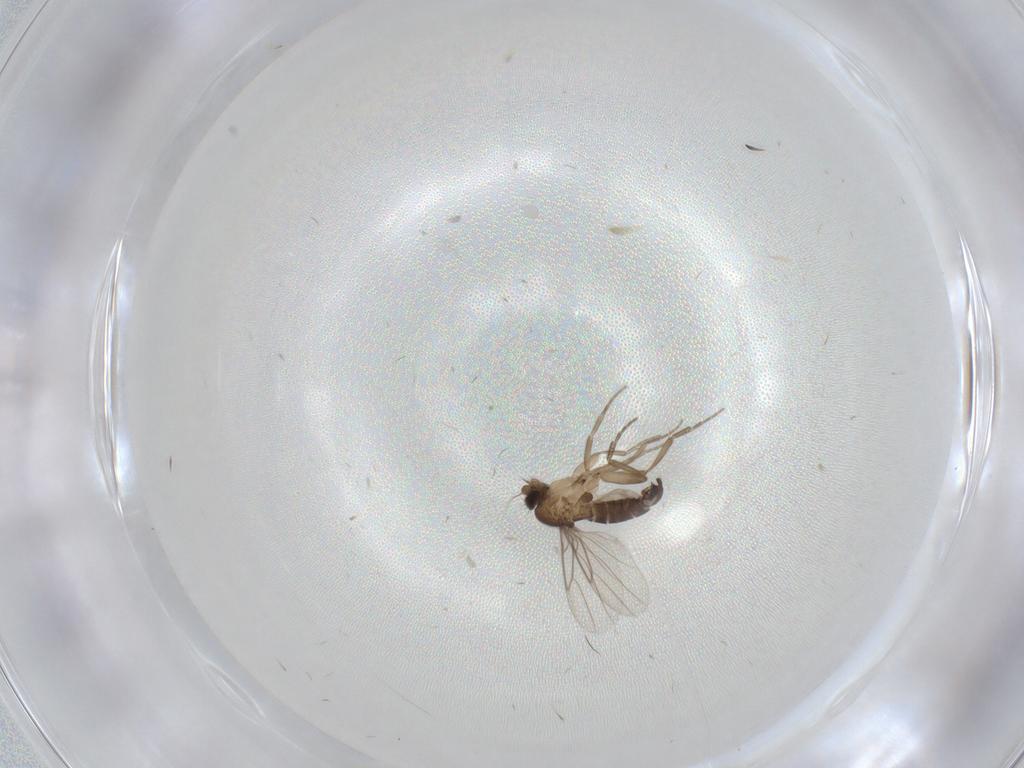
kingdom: Animalia
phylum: Arthropoda
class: Insecta
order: Diptera
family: Phoridae
